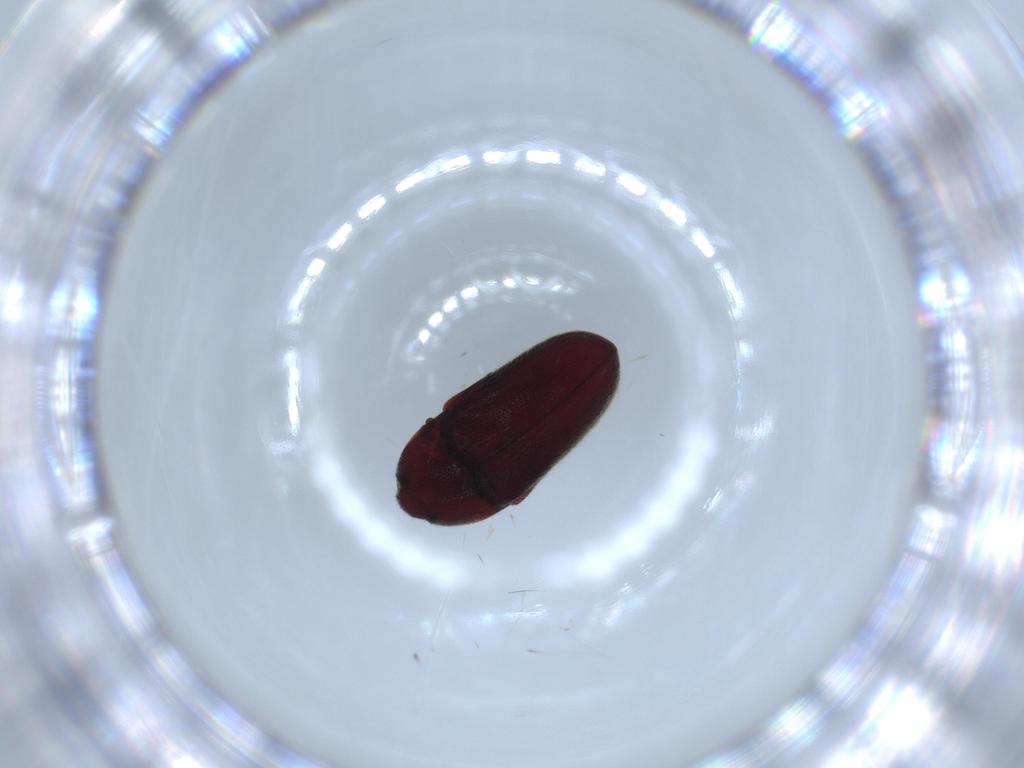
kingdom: Animalia
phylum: Arthropoda
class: Insecta
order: Coleoptera
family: Throscidae
